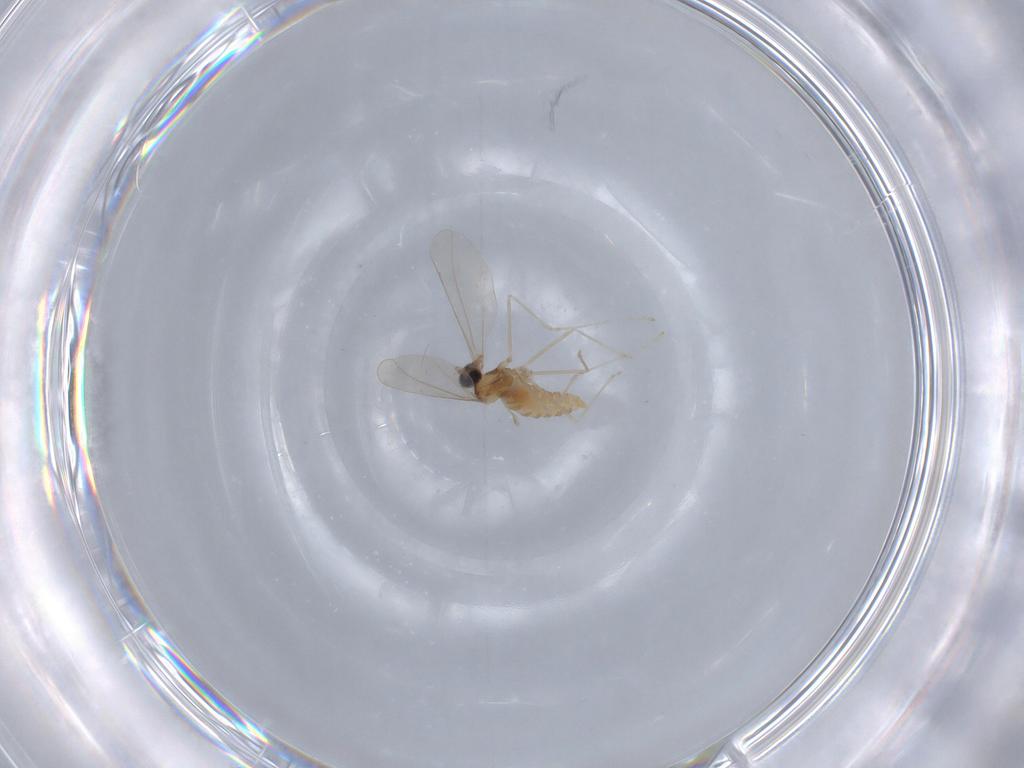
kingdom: Animalia
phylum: Arthropoda
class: Insecta
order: Diptera
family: Cecidomyiidae
